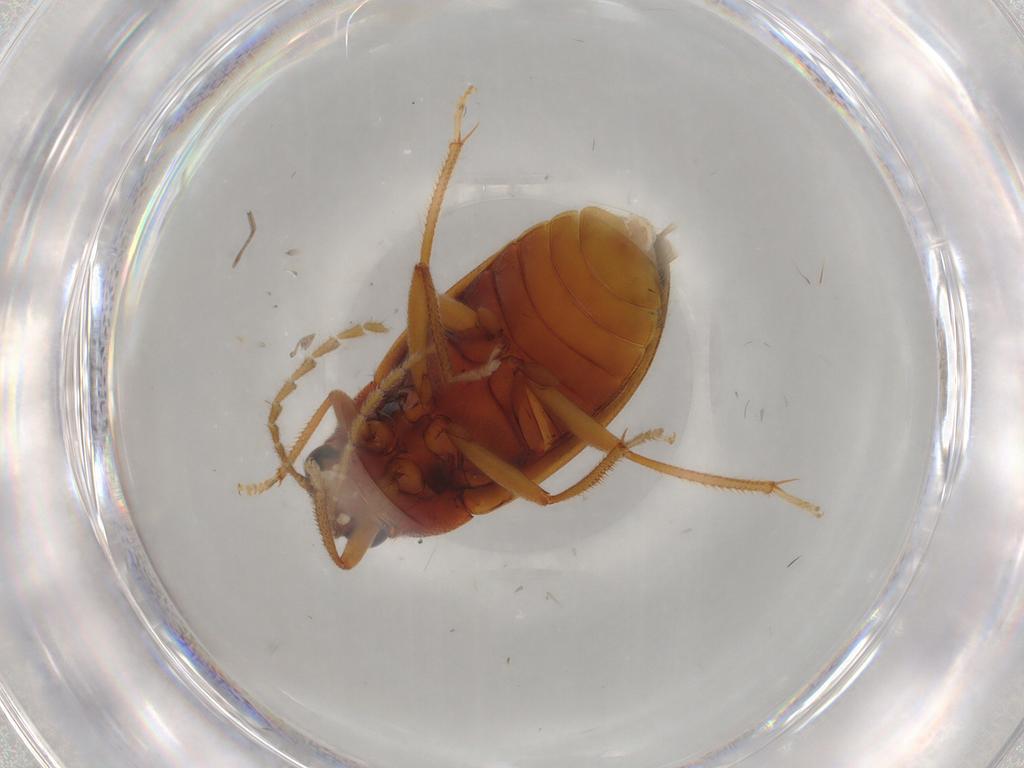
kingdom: Animalia
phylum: Arthropoda
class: Insecta
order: Coleoptera
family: Ptilodactylidae
